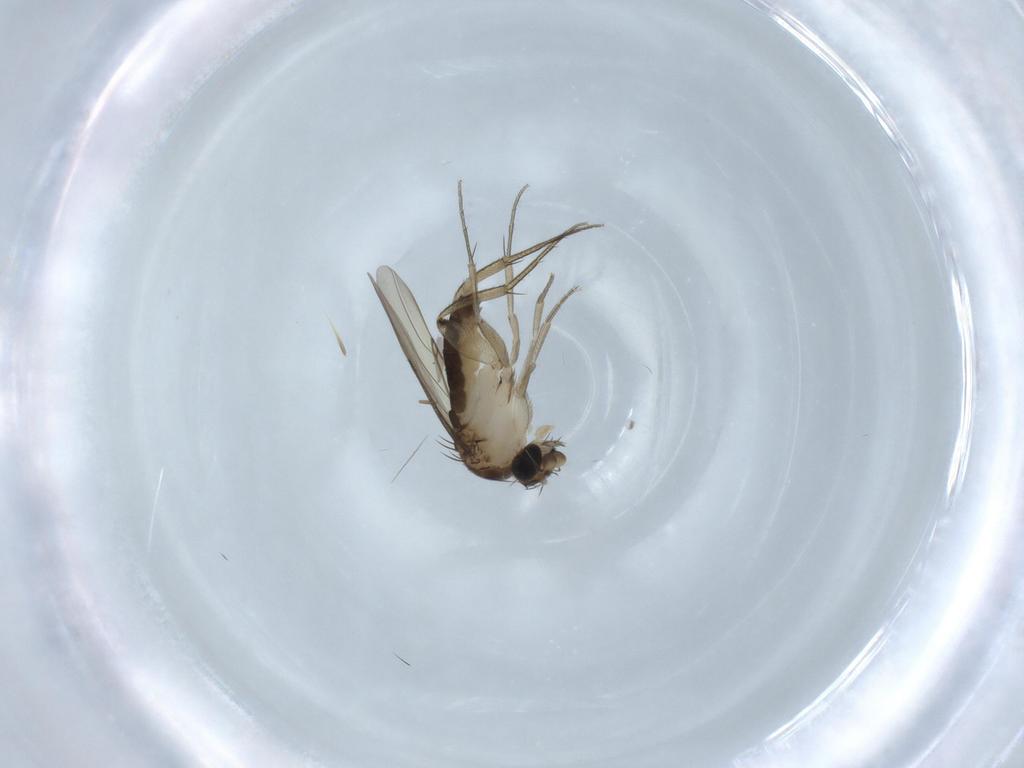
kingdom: Animalia
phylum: Arthropoda
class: Insecta
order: Diptera
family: Phoridae
